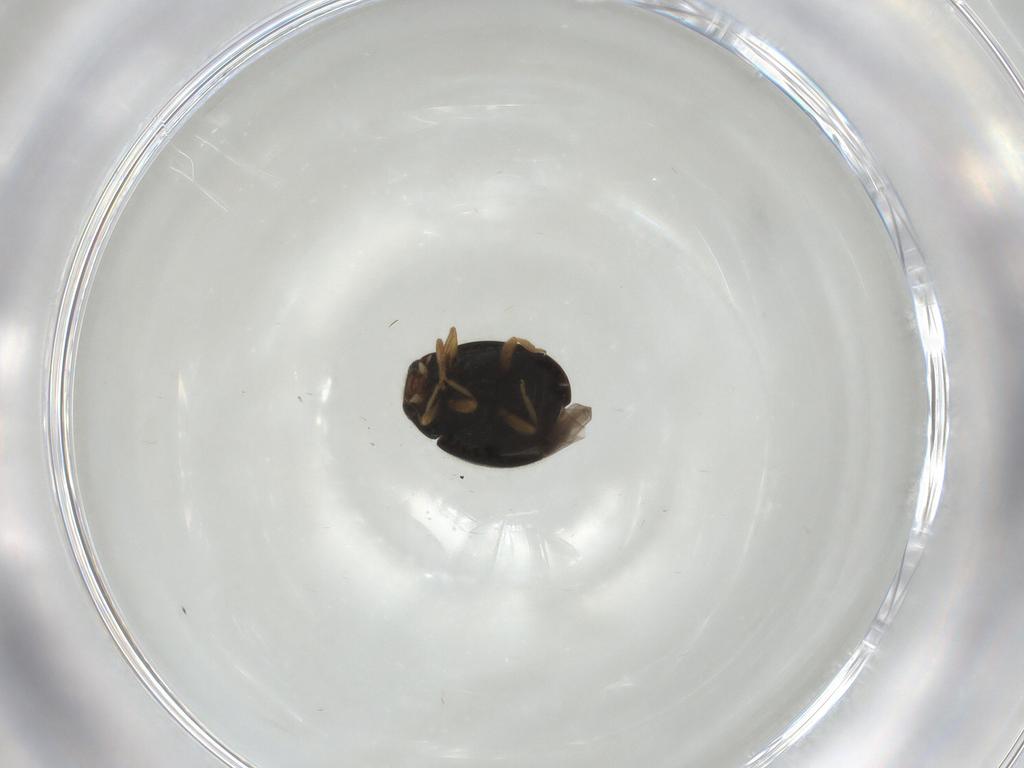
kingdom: Animalia
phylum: Arthropoda
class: Insecta
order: Coleoptera
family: Coccinellidae
